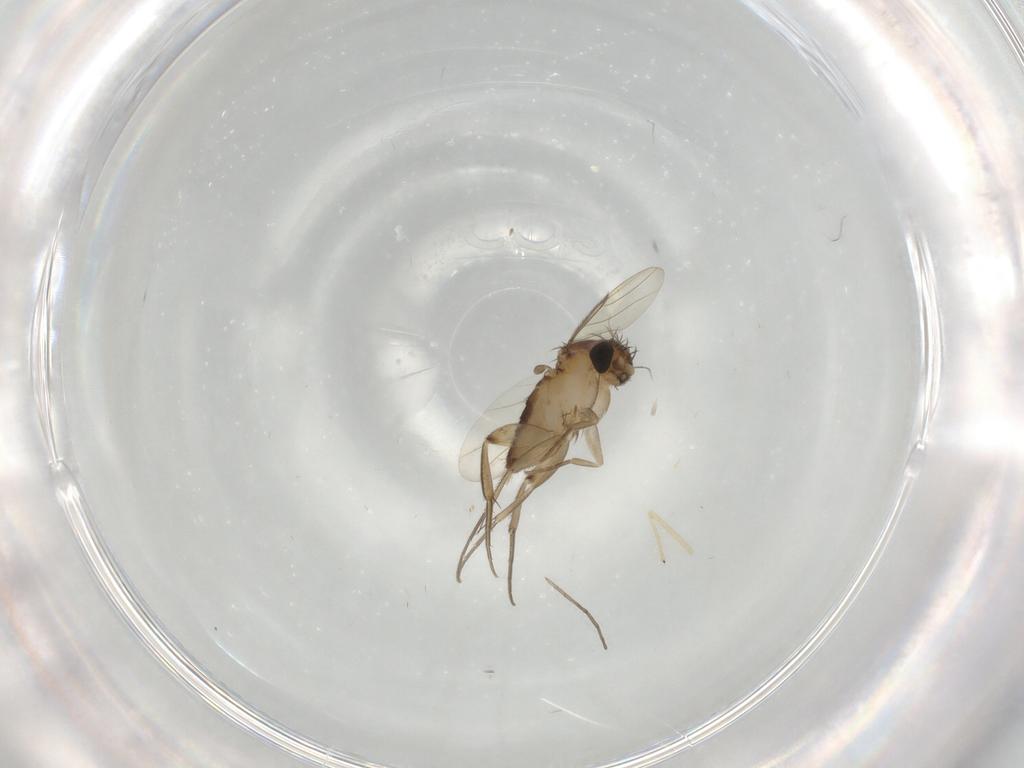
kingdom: Animalia
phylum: Arthropoda
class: Insecta
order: Diptera
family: Phoridae
